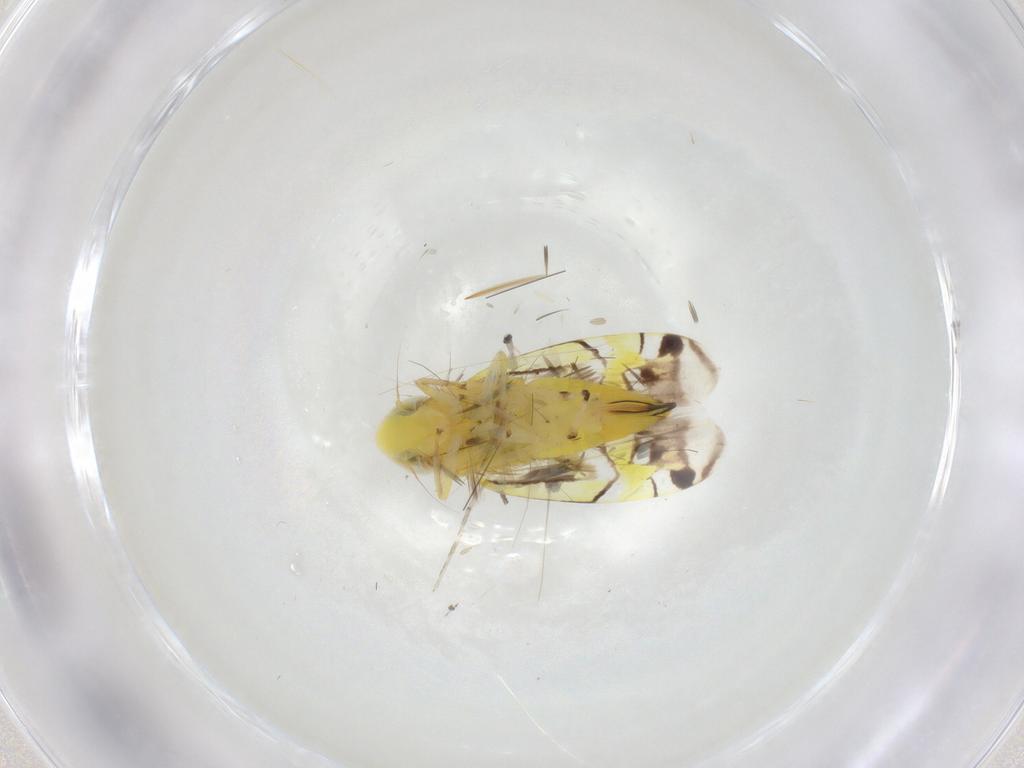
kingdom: Animalia
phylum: Arthropoda
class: Insecta
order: Hemiptera
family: Cicadellidae
